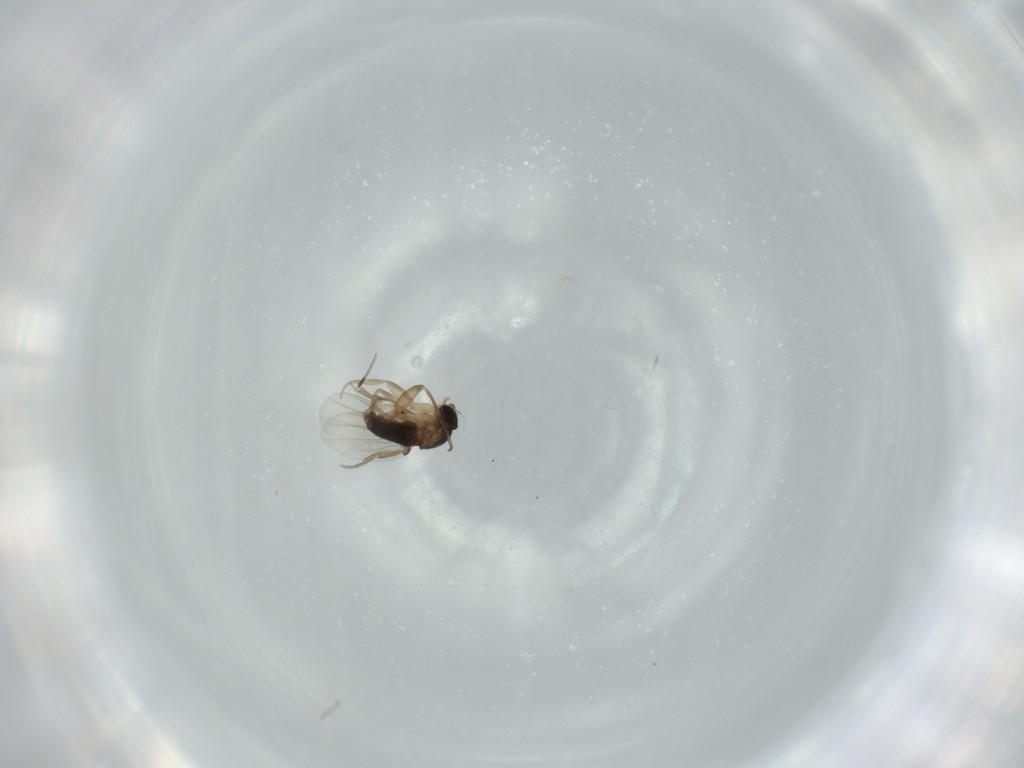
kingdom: Animalia
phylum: Arthropoda
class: Insecta
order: Diptera
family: Phoridae
